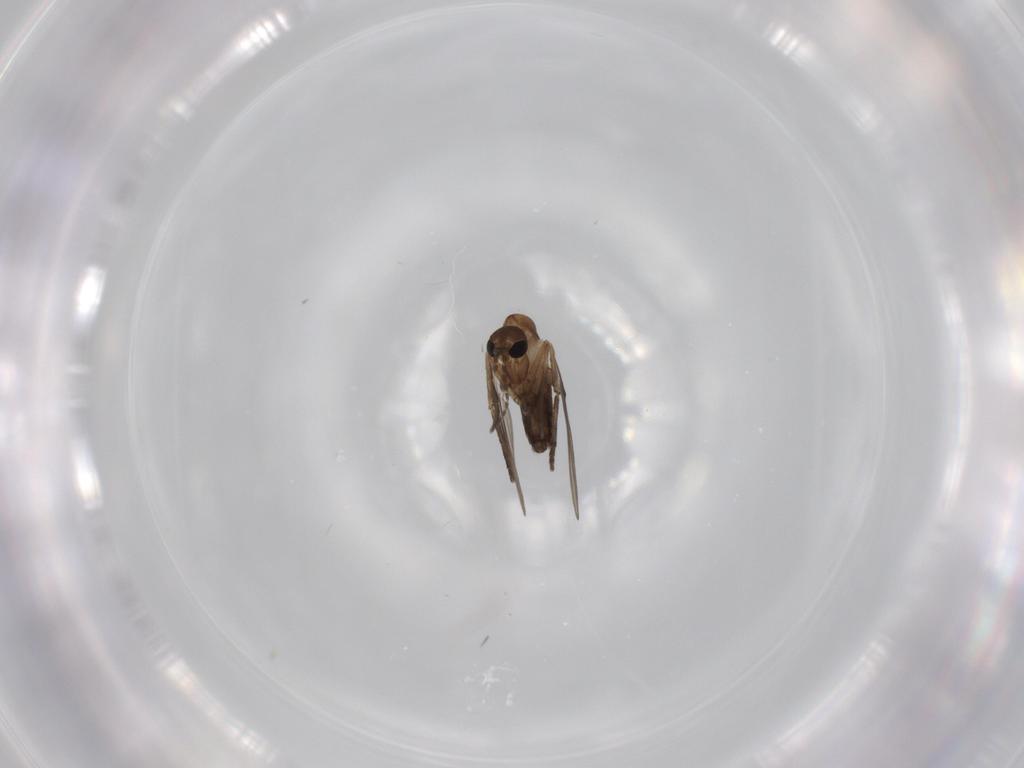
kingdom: Animalia
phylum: Arthropoda
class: Insecta
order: Diptera
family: Psychodidae
